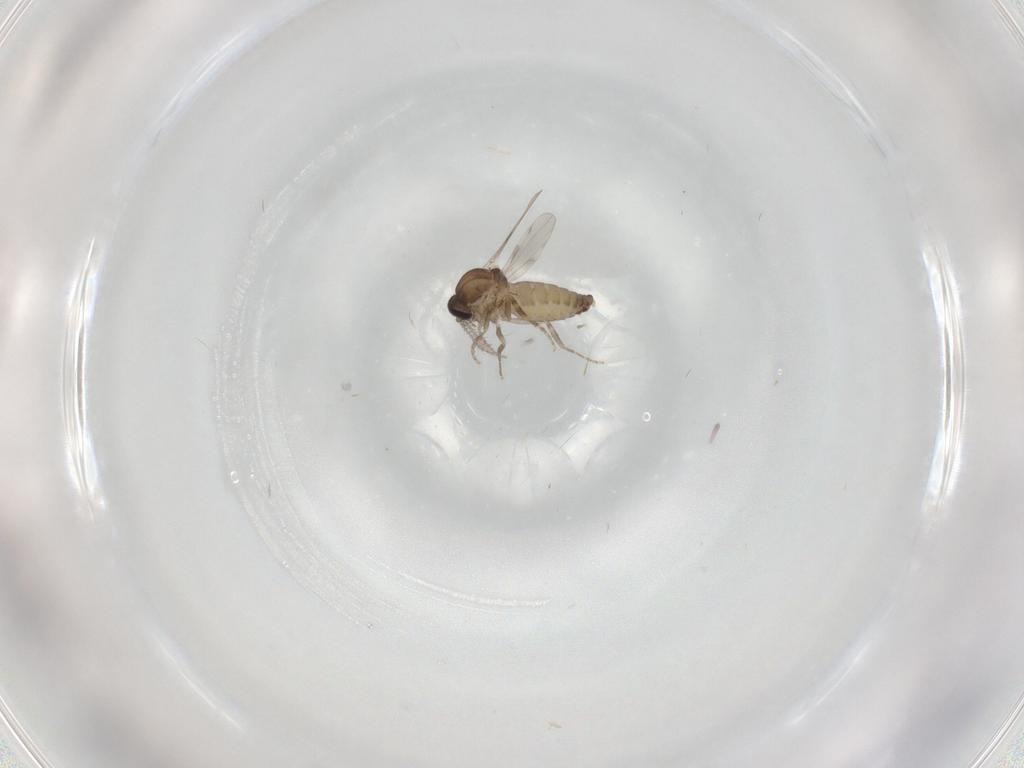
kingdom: Animalia
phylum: Arthropoda
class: Insecta
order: Diptera
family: Ceratopogonidae
